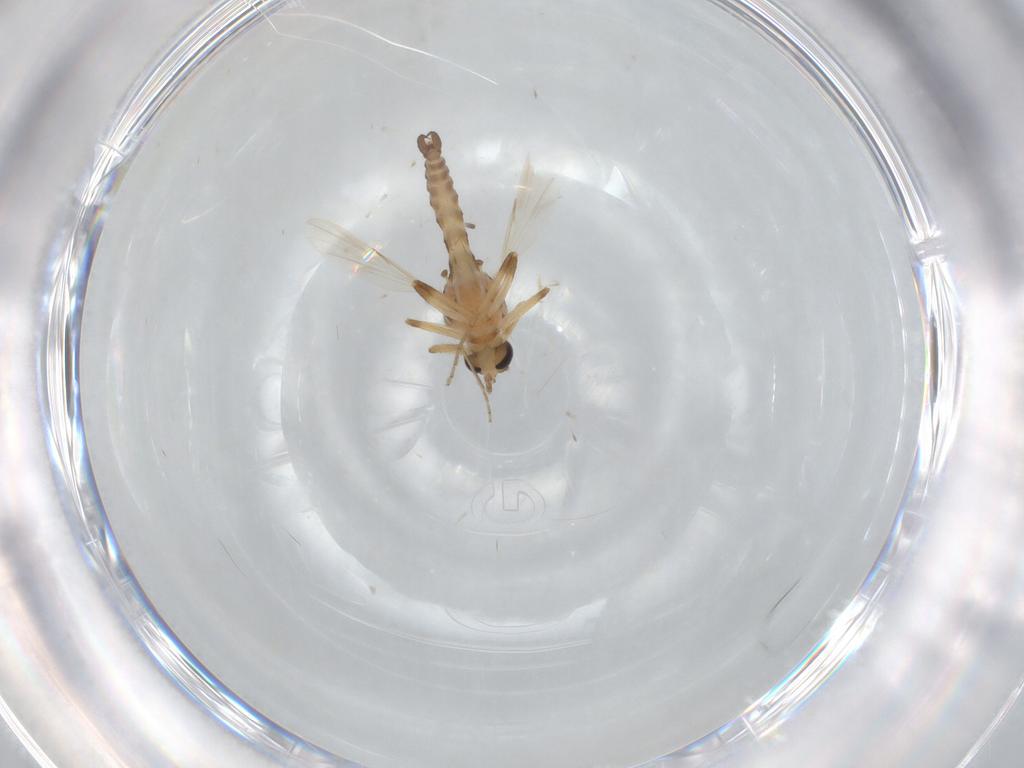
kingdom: Animalia
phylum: Arthropoda
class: Insecta
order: Diptera
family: Ceratopogonidae
